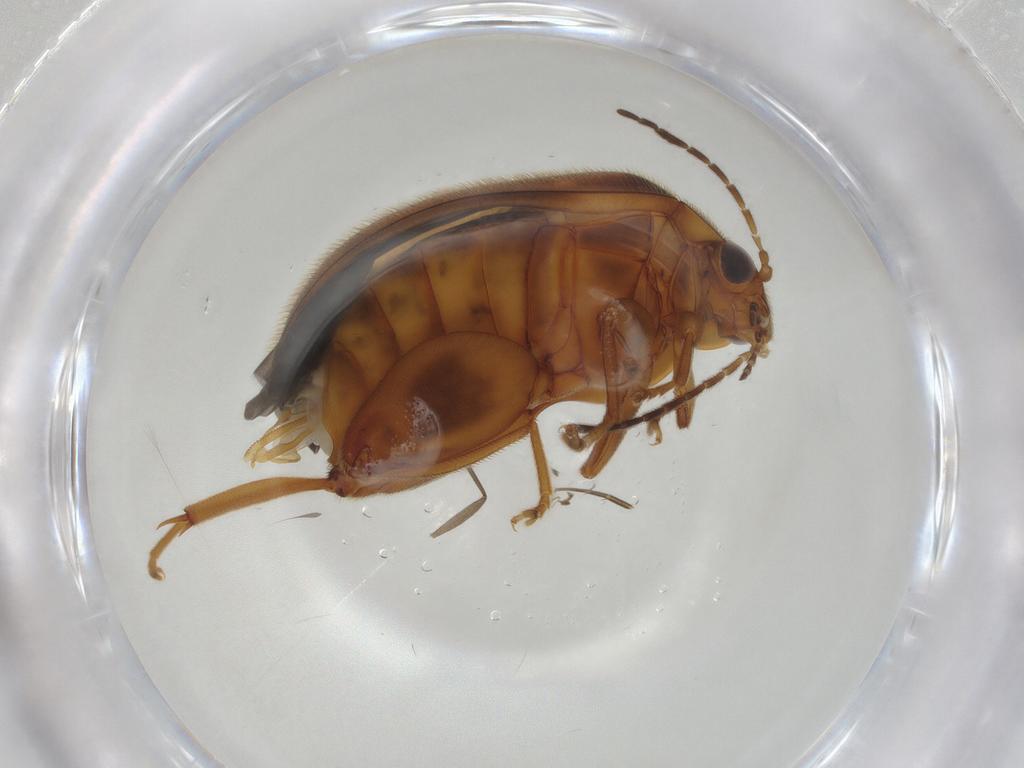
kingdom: Animalia
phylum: Arthropoda
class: Insecta
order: Coleoptera
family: Scirtidae
